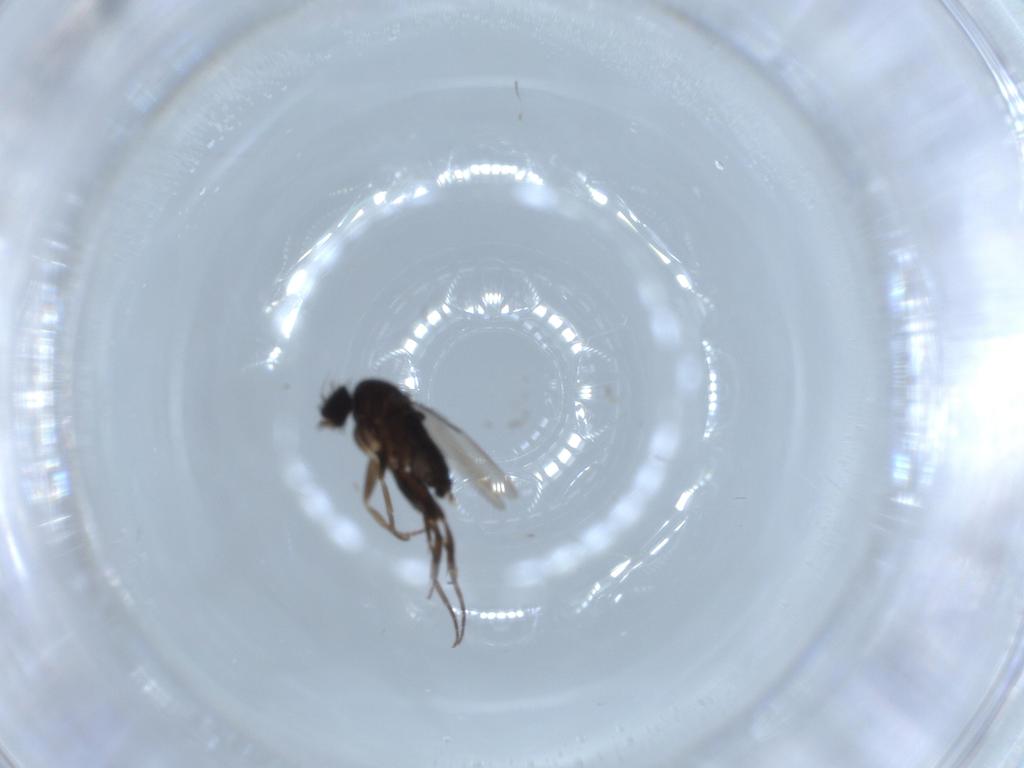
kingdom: Animalia
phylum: Arthropoda
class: Insecta
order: Diptera
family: Phoridae
